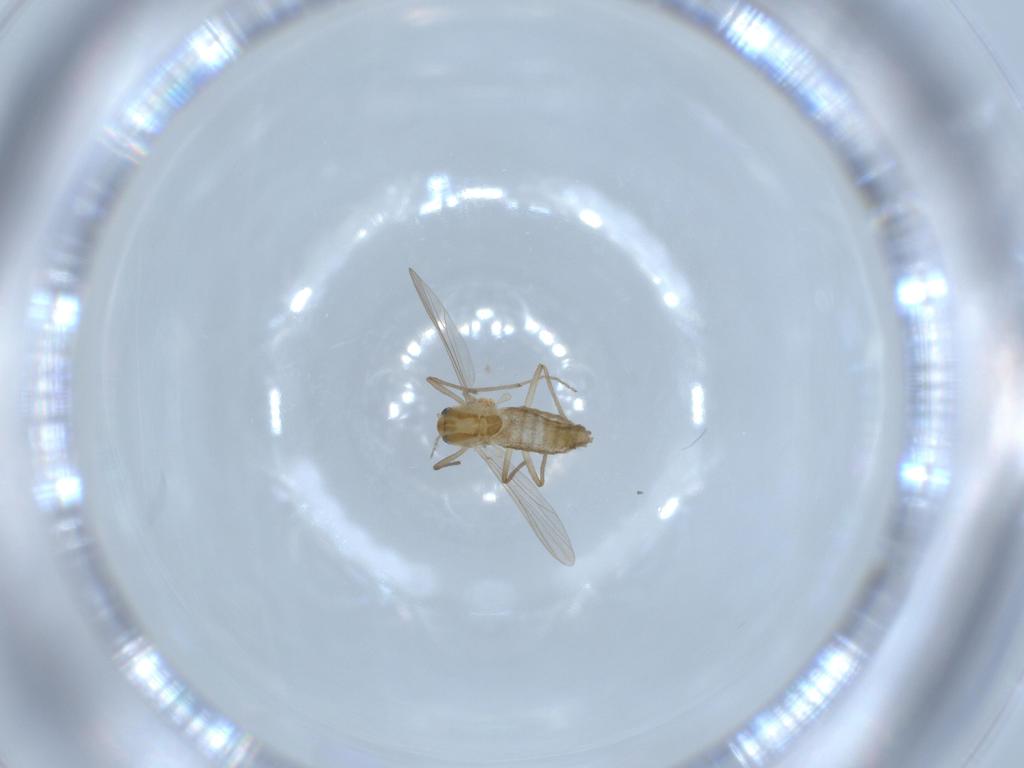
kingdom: Animalia
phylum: Arthropoda
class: Insecta
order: Diptera
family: Chironomidae
